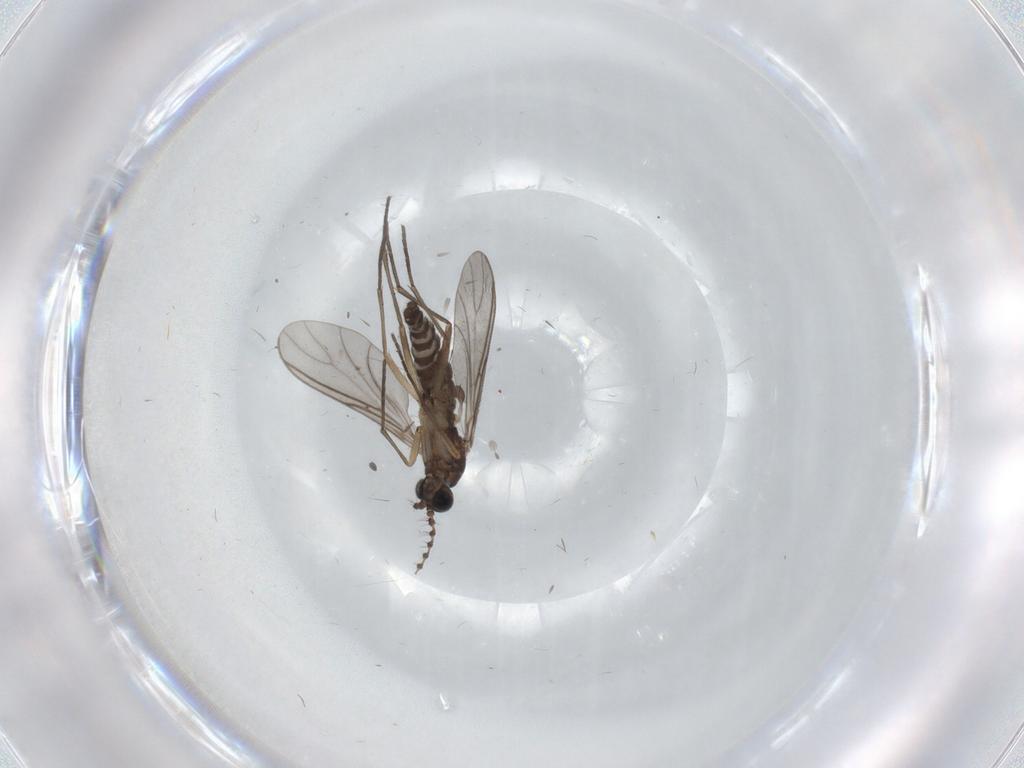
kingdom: Animalia
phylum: Arthropoda
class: Insecta
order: Diptera
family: Sciaridae
